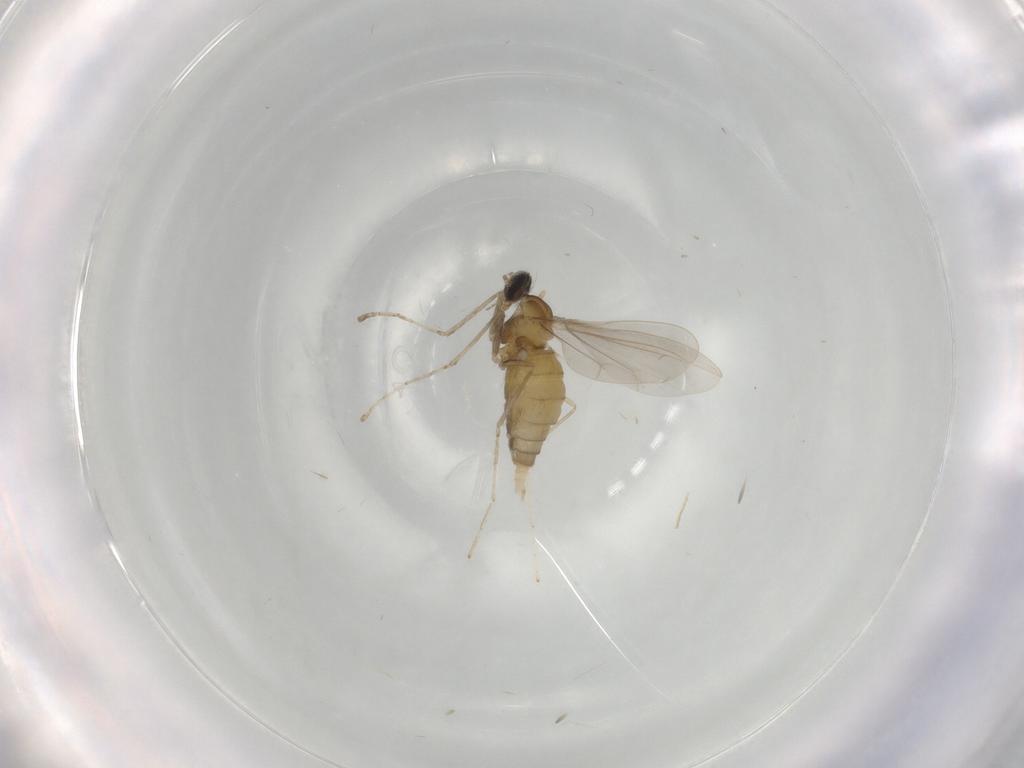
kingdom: Animalia
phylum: Arthropoda
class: Insecta
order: Diptera
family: Cecidomyiidae
